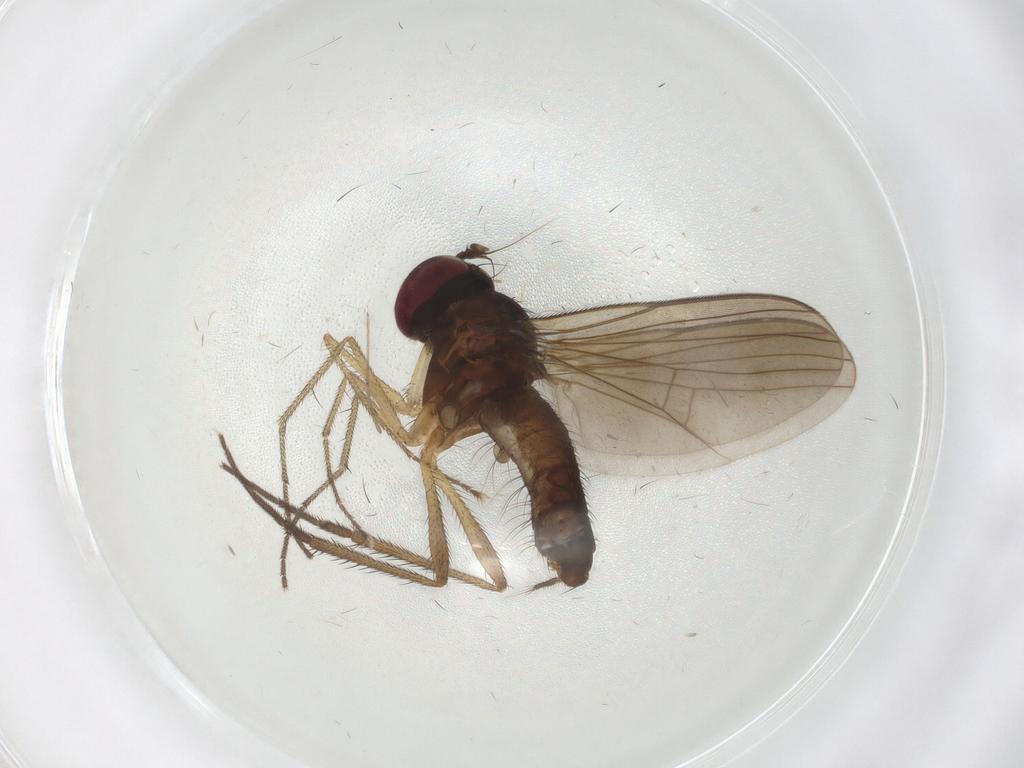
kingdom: Animalia
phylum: Arthropoda
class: Insecta
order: Diptera
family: Dolichopodidae
